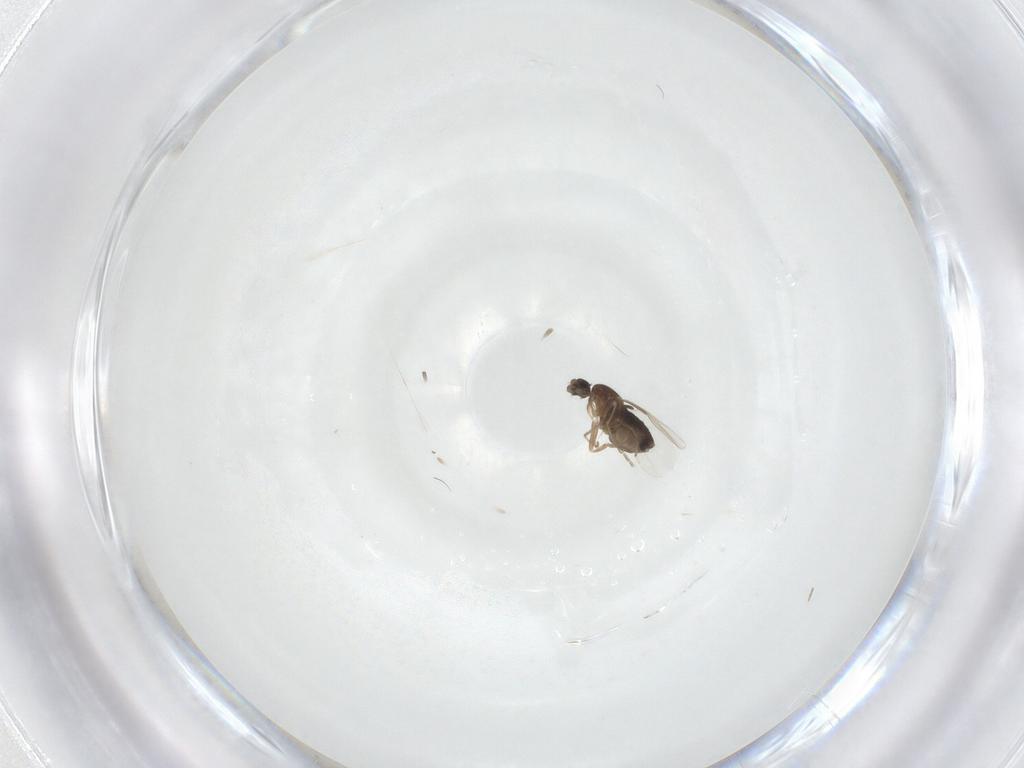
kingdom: Animalia
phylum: Arthropoda
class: Insecta
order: Diptera
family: Phoridae
